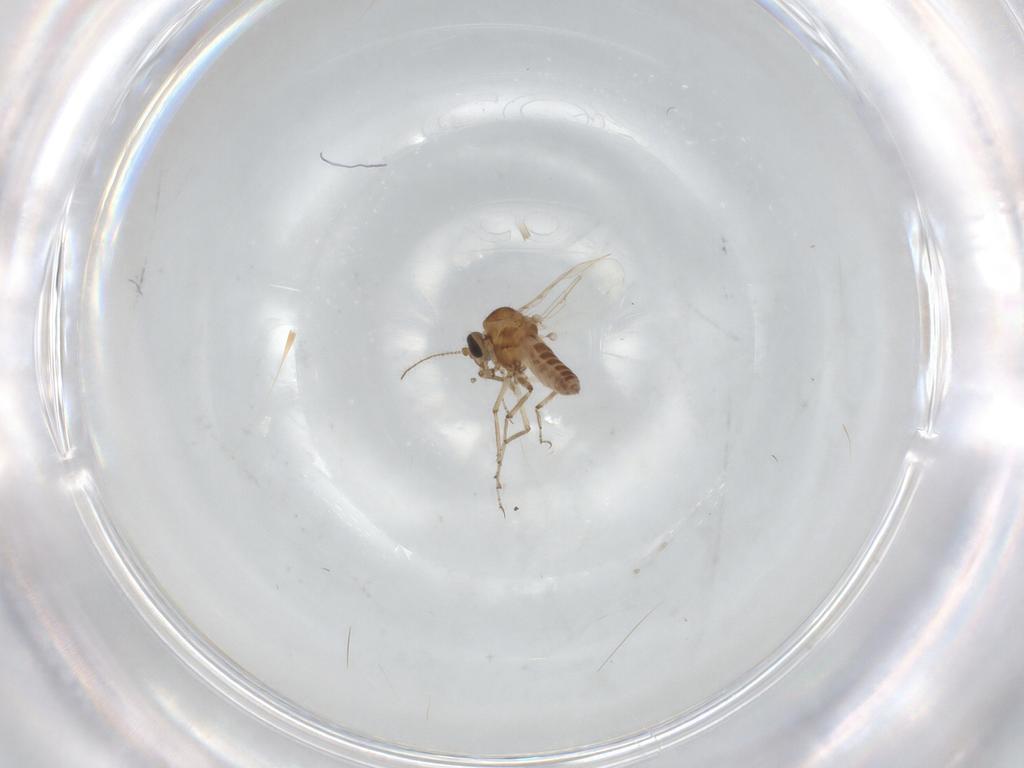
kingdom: Animalia
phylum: Arthropoda
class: Insecta
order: Diptera
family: Ceratopogonidae
